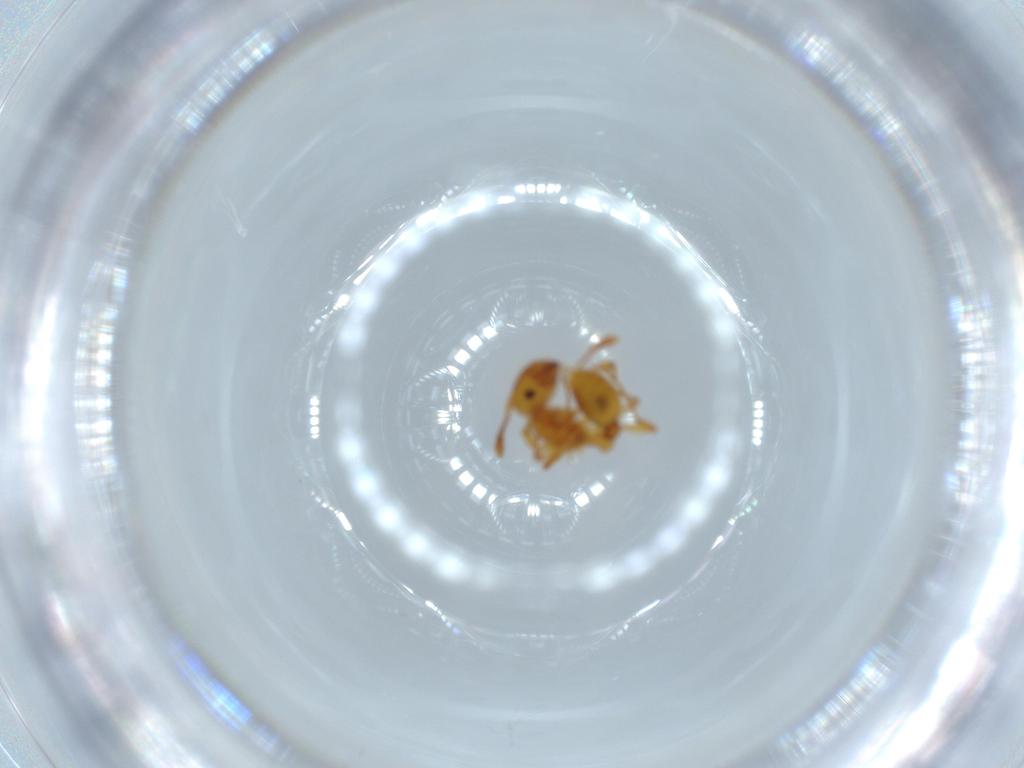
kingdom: Animalia
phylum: Arthropoda
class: Insecta
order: Hymenoptera
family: Formicidae
